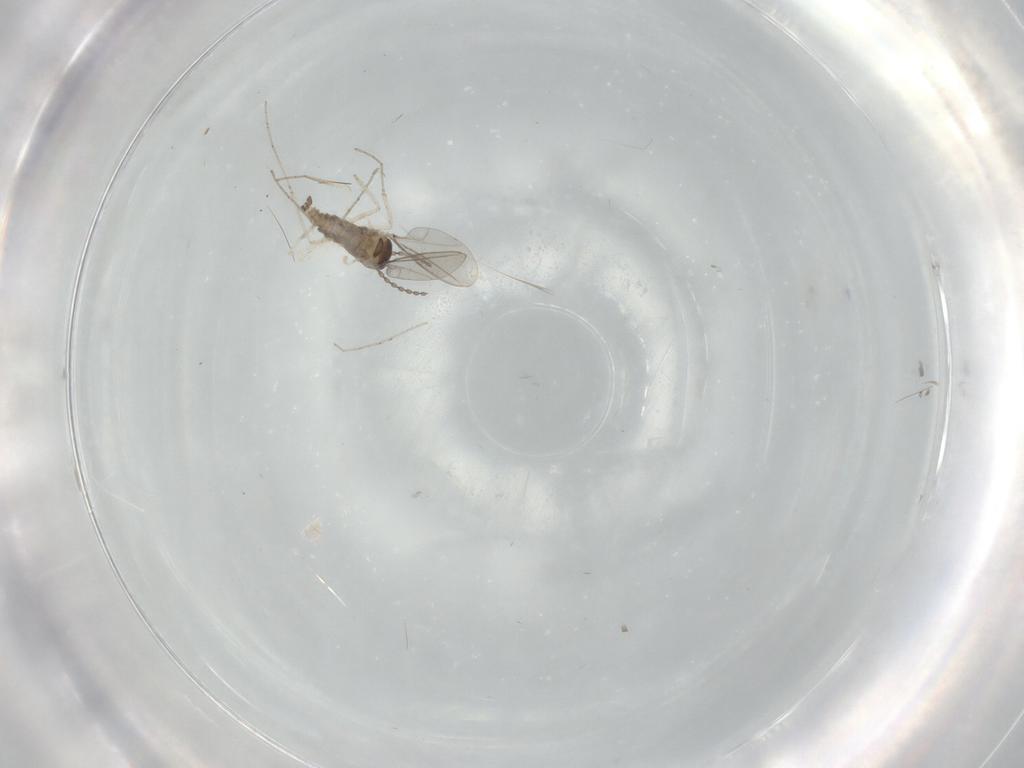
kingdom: Animalia
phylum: Arthropoda
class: Insecta
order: Diptera
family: Cecidomyiidae
